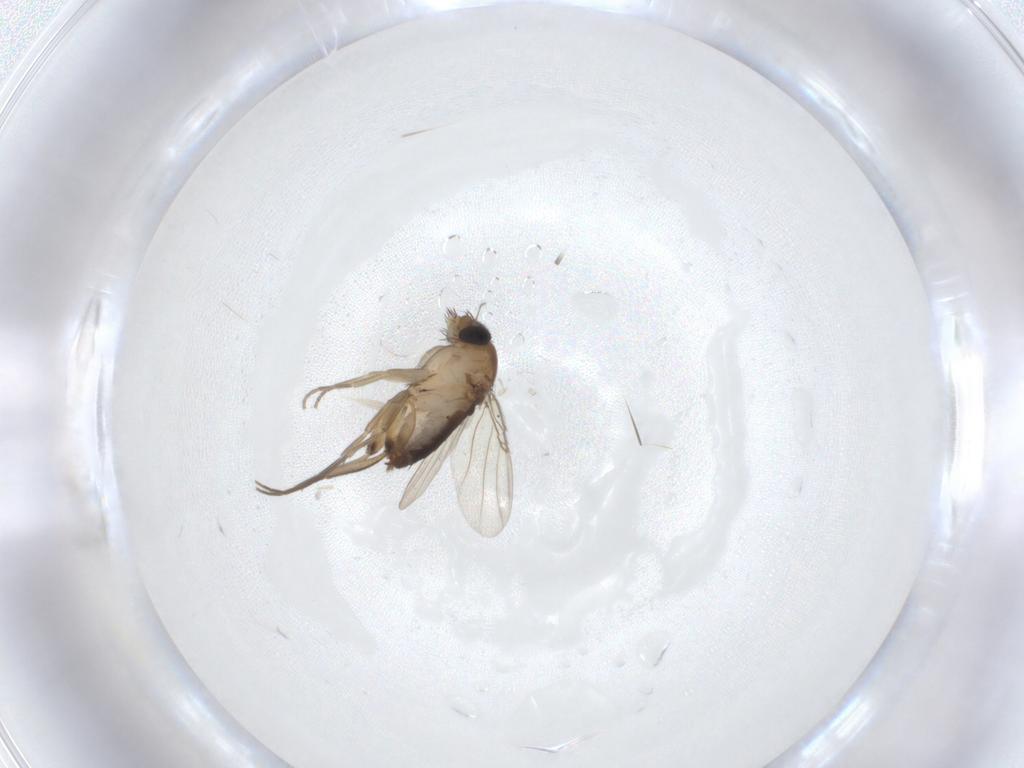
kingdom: Animalia
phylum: Arthropoda
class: Insecta
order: Diptera
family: Phoridae
